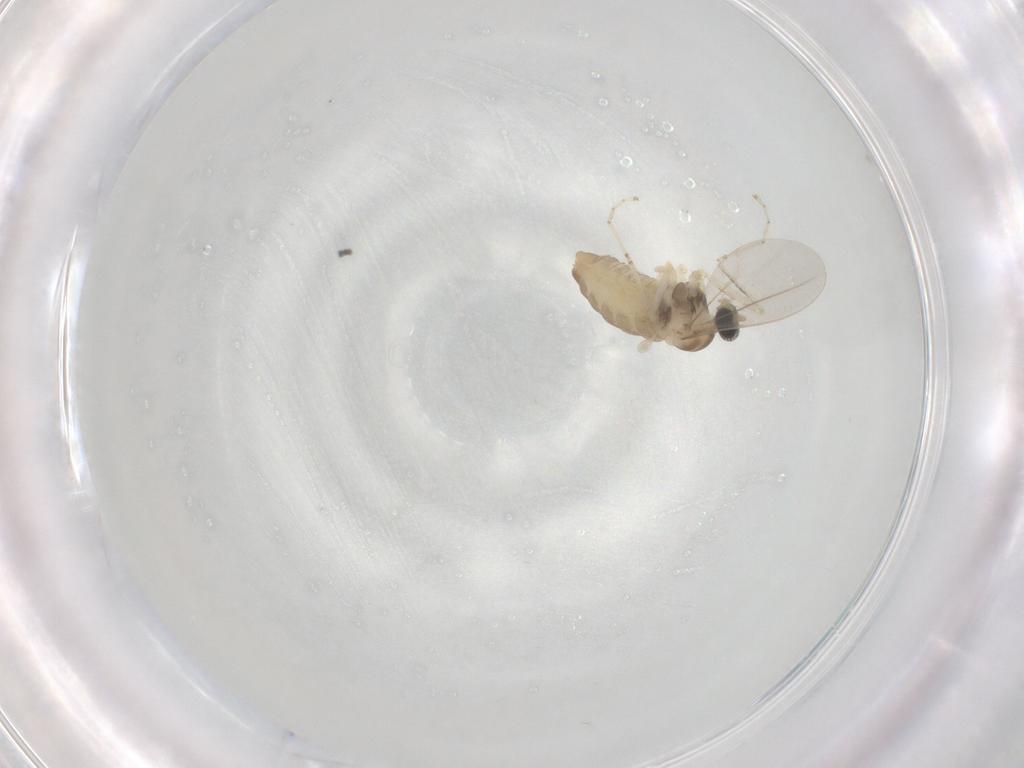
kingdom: Animalia
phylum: Arthropoda
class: Insecta
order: Diptera
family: Cecidomyiidae
